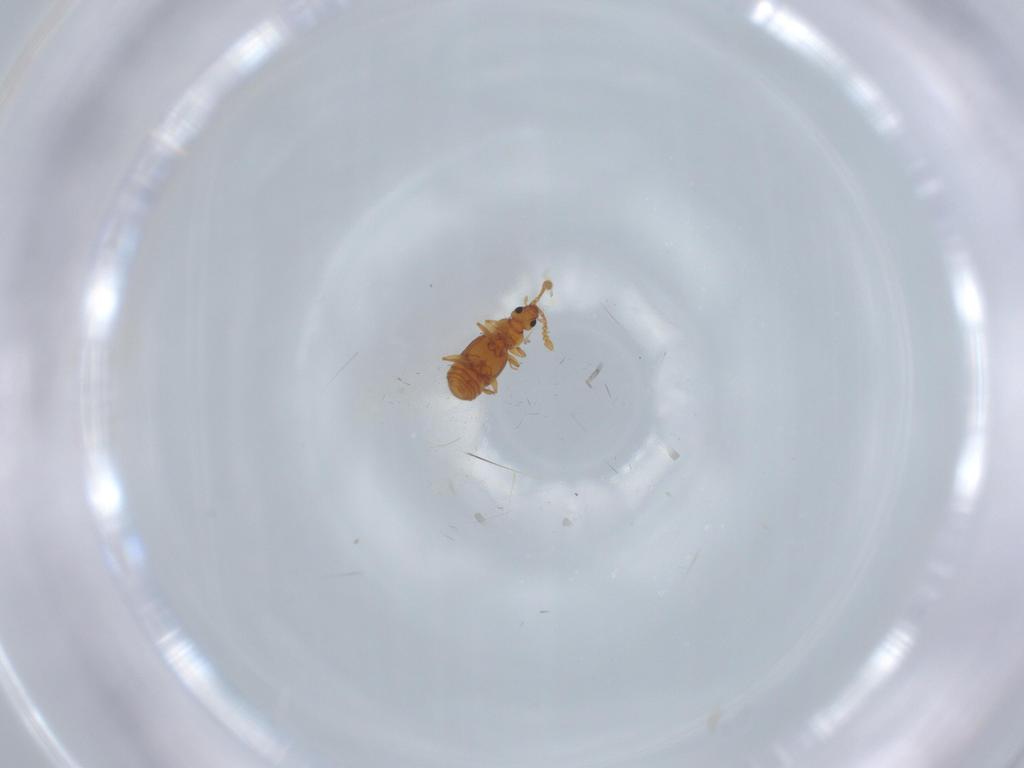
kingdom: Animalia
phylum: Arthropoda
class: Insecta
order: Coleoptera
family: Staphylinidae
